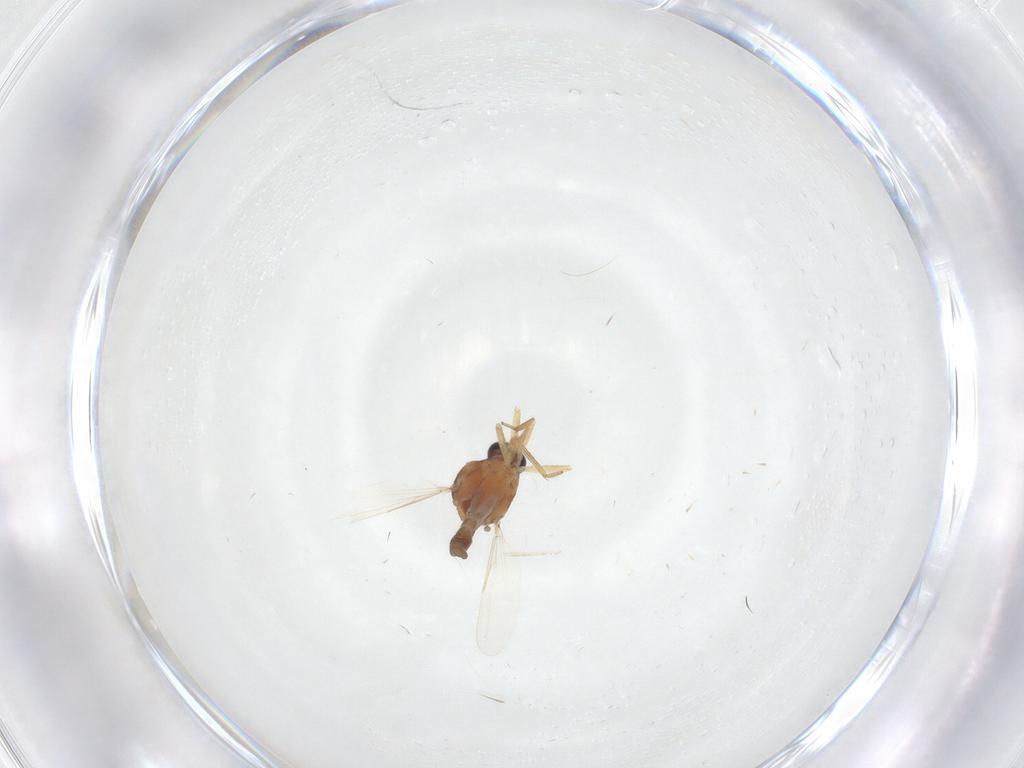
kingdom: Animalia
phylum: Arthropoda
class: Insecta
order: Diptera
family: Ceratopogonidae
